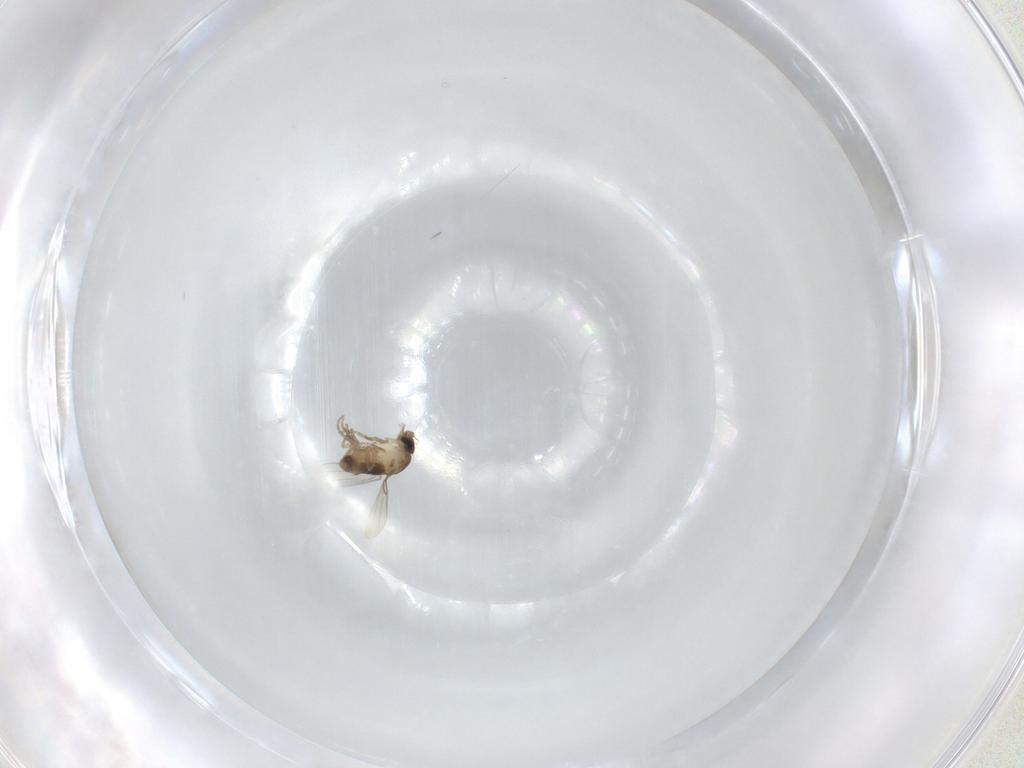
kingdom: Animalia
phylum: Arthropoda
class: Insecta
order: Diptera
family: Phoridae
